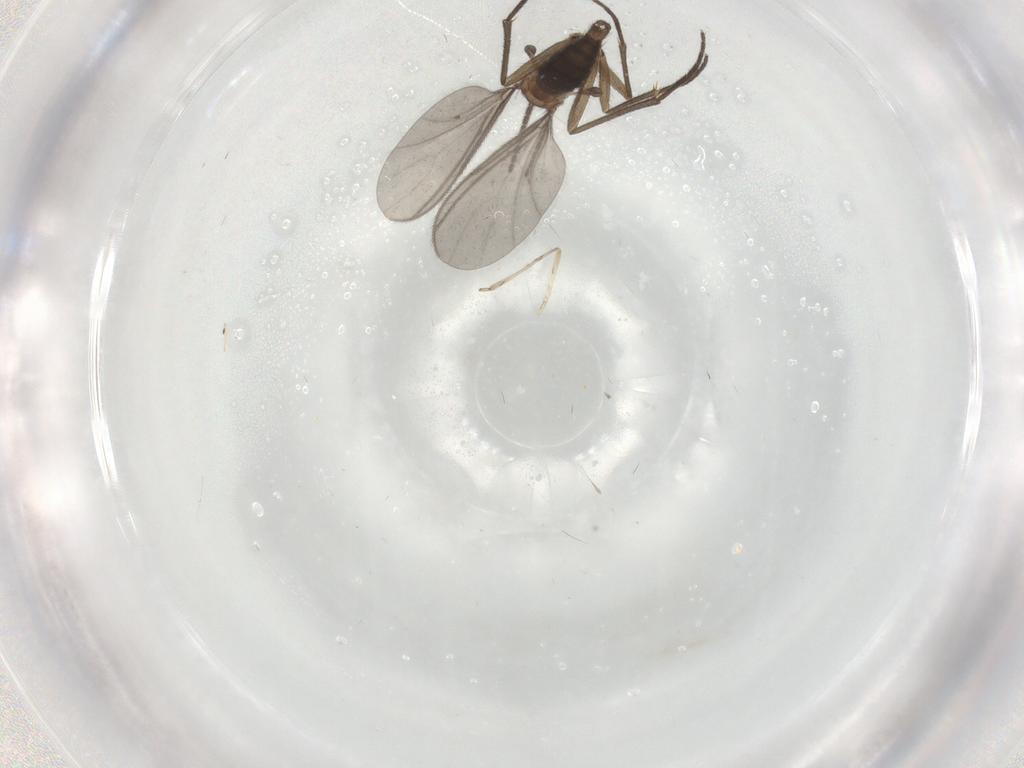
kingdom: Animalia
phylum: Arthropoda
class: Insecta
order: Diptera
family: Sciaridae
